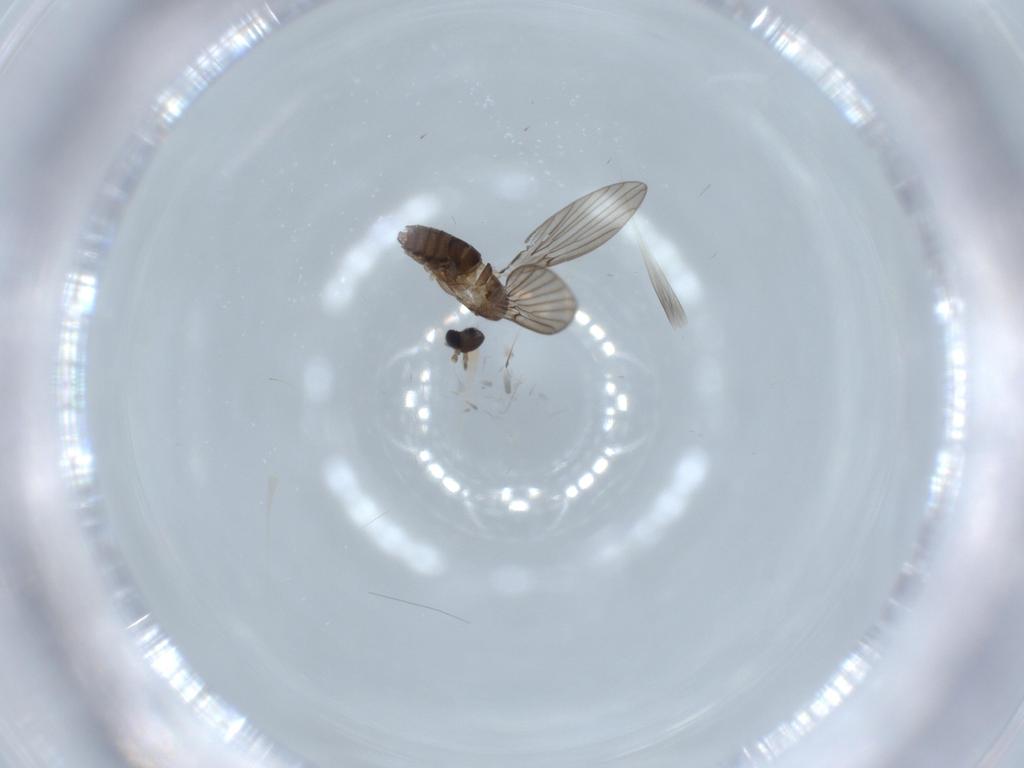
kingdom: Animalia
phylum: Arthropoda
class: Insecta
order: Diptera
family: Psychodidae
